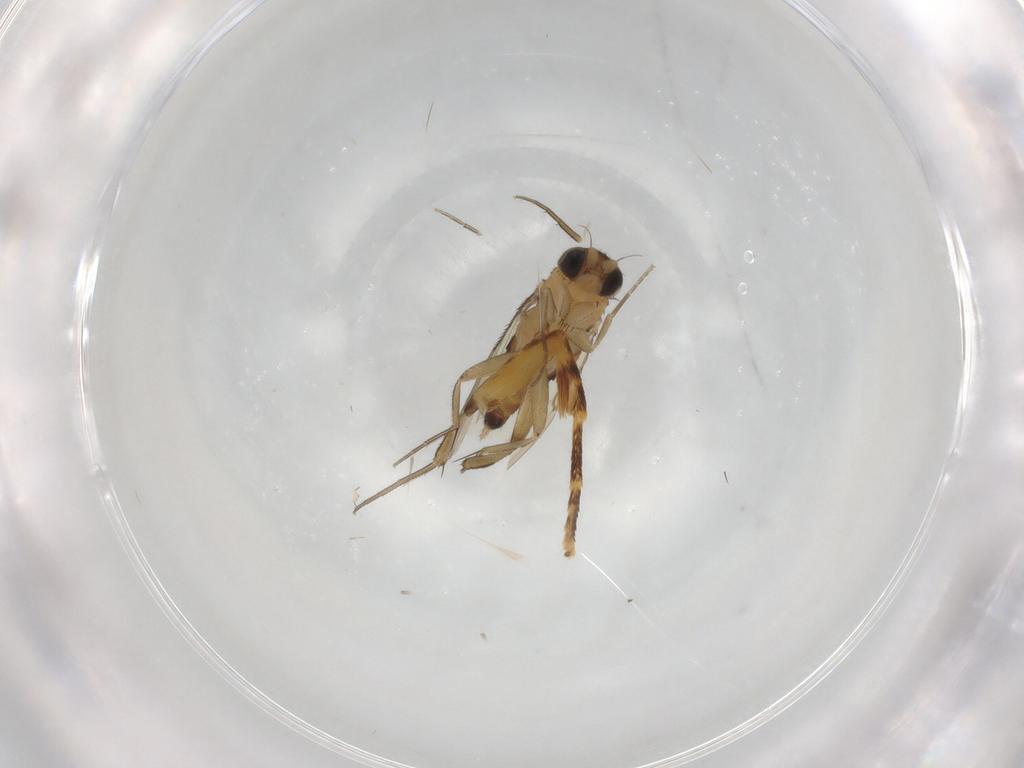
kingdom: Animalia
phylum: Arthropoda
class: Insecta
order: Diptera
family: Phoridae
